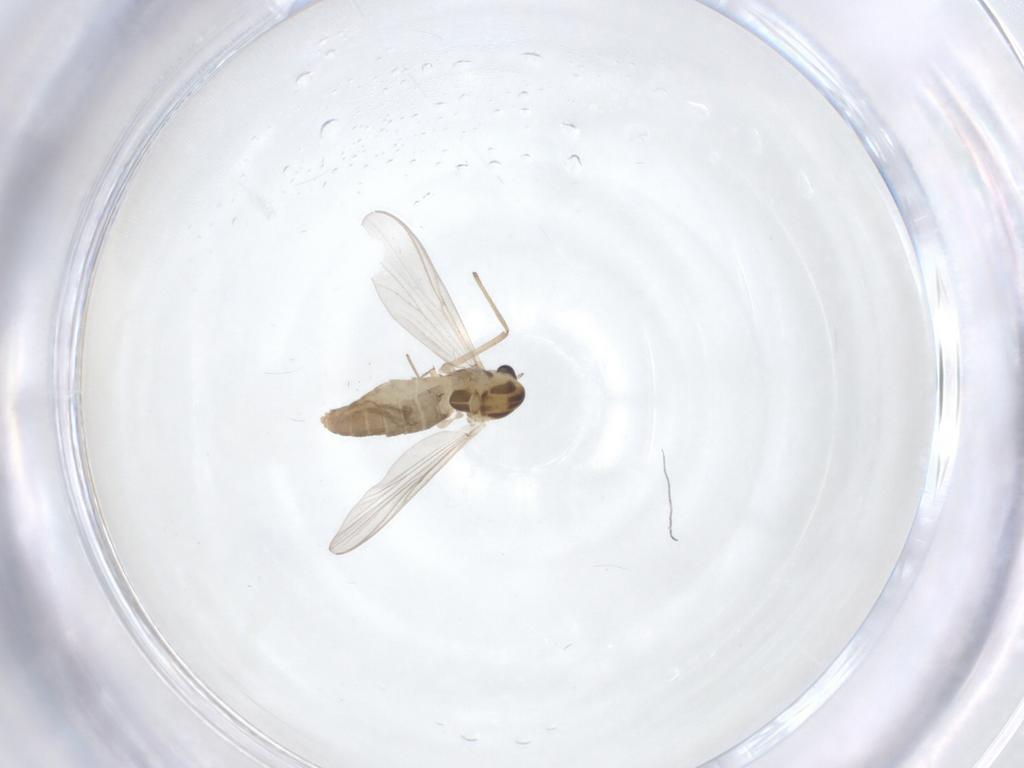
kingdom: Animalia
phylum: Arthropoda
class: Insecta
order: Diptera
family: Chironomidae
